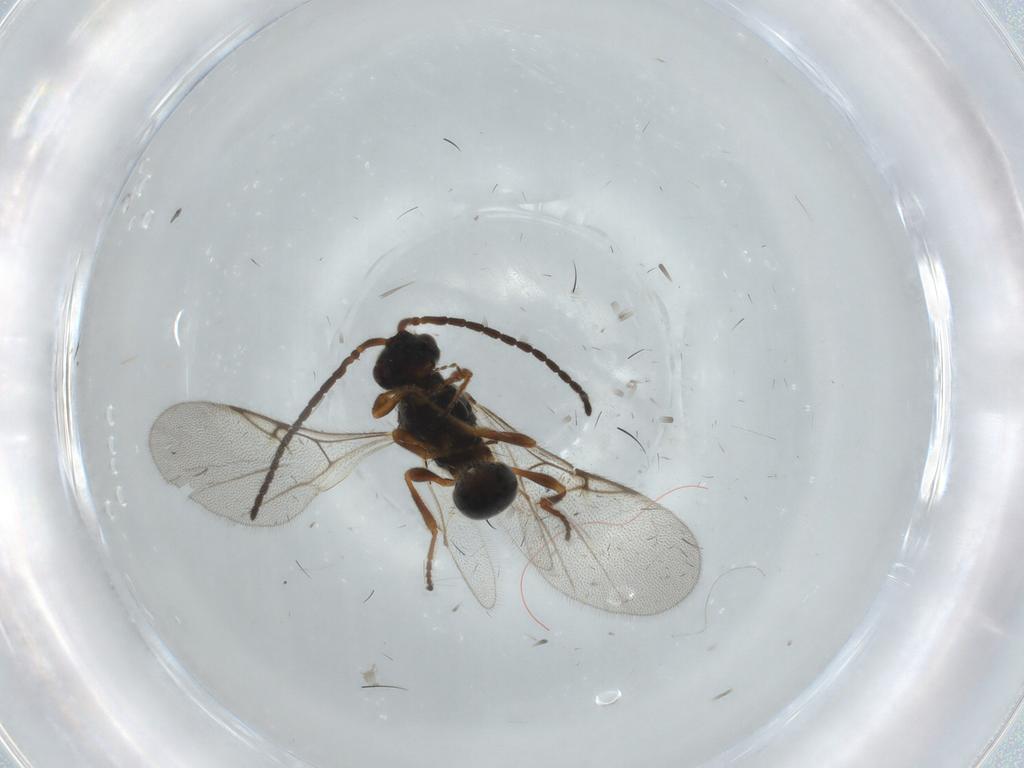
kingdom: Animalia
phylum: Arthropoda
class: Insecta
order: Hymenoptera
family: Diapriidae
